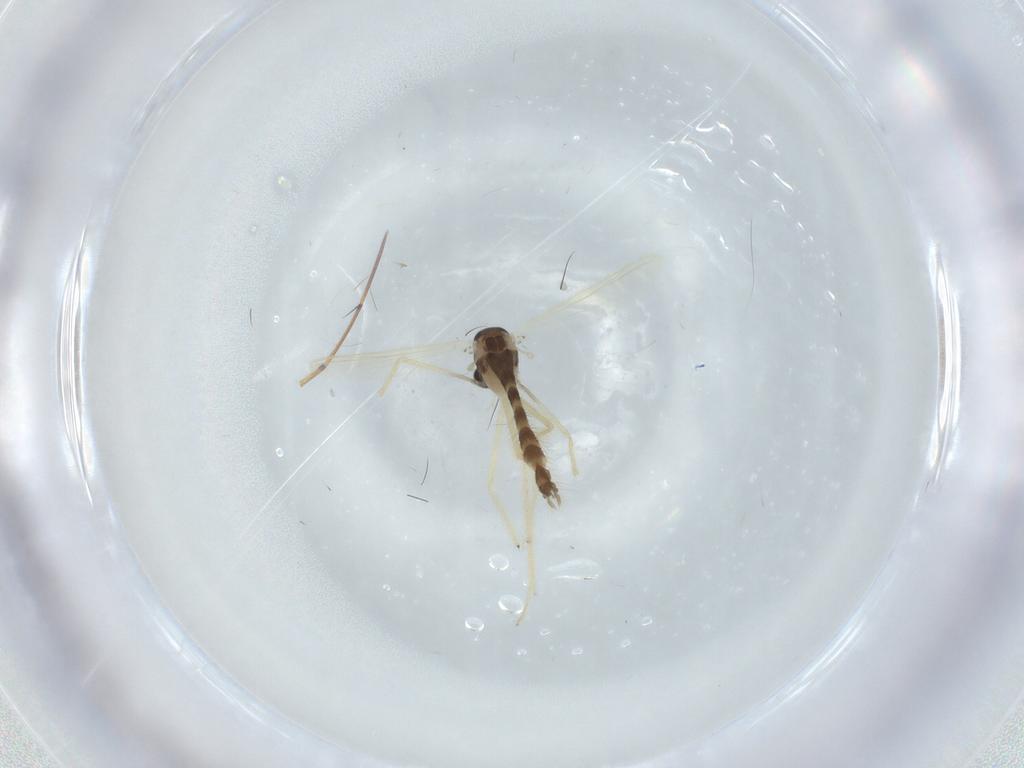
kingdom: Animalia
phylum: Arthropoda
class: Insecta
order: Diptera
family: Chironomidae
